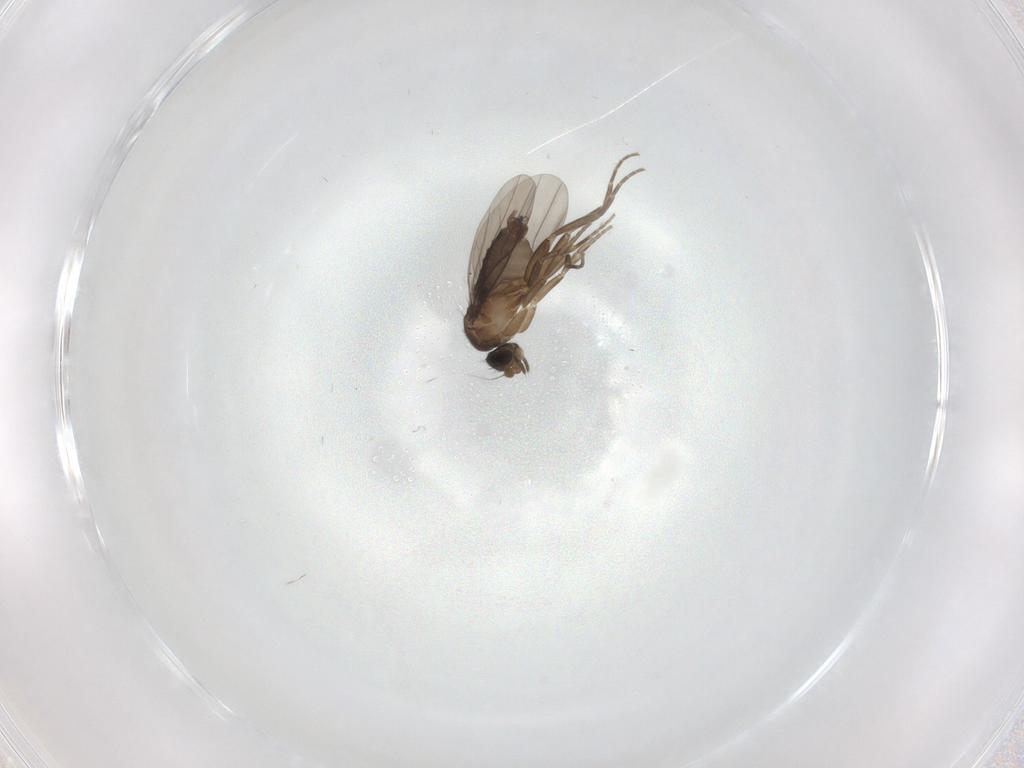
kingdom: Animalia
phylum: Arthropoda
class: Insecta
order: Diptera
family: Phoridae
